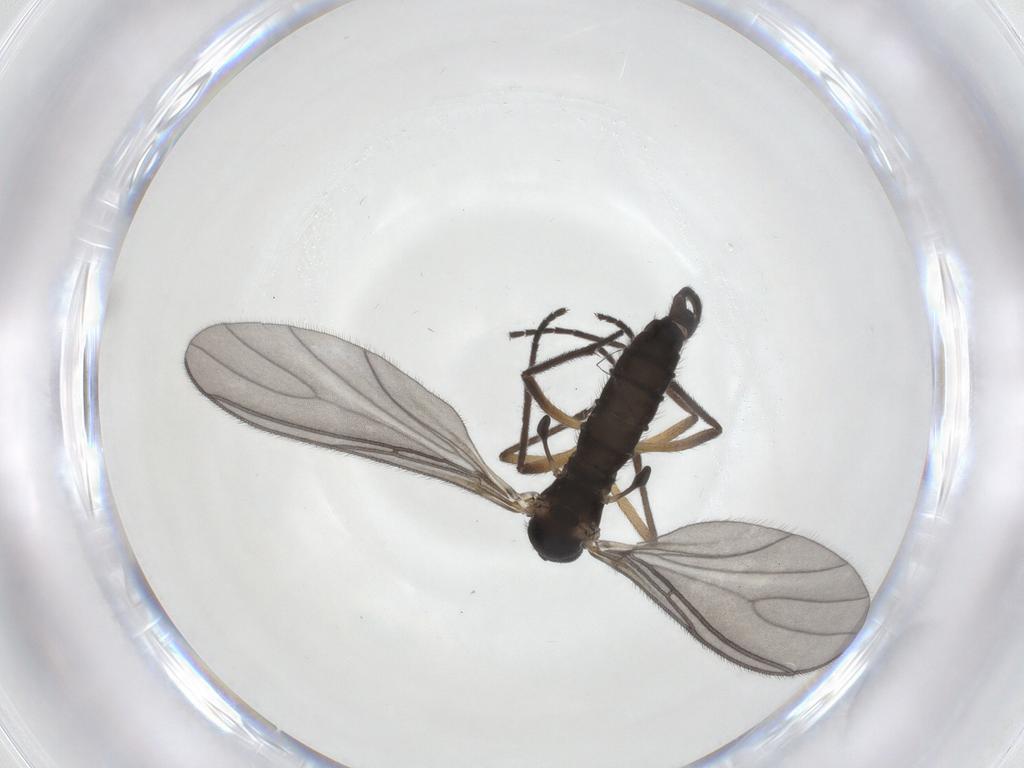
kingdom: Animalia
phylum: Arthropoda
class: Insecta
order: Diptera
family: Sciaridae
